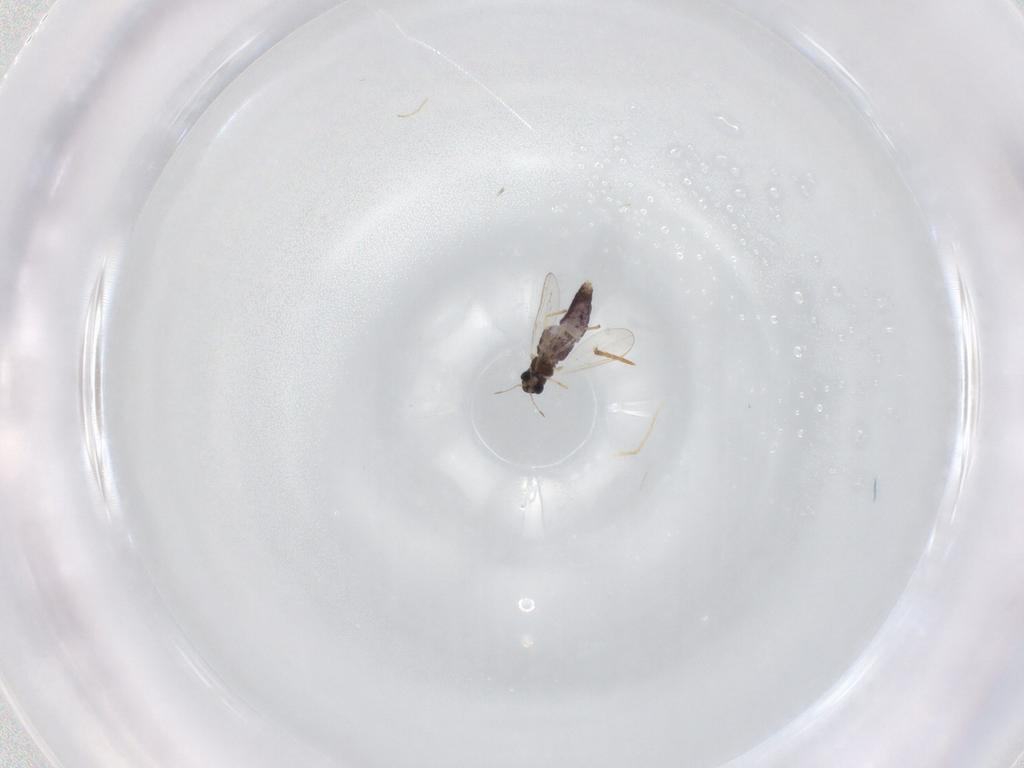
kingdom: Animalia
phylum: Arthropoda
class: Insecta
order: Diptera
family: Chironomidae
